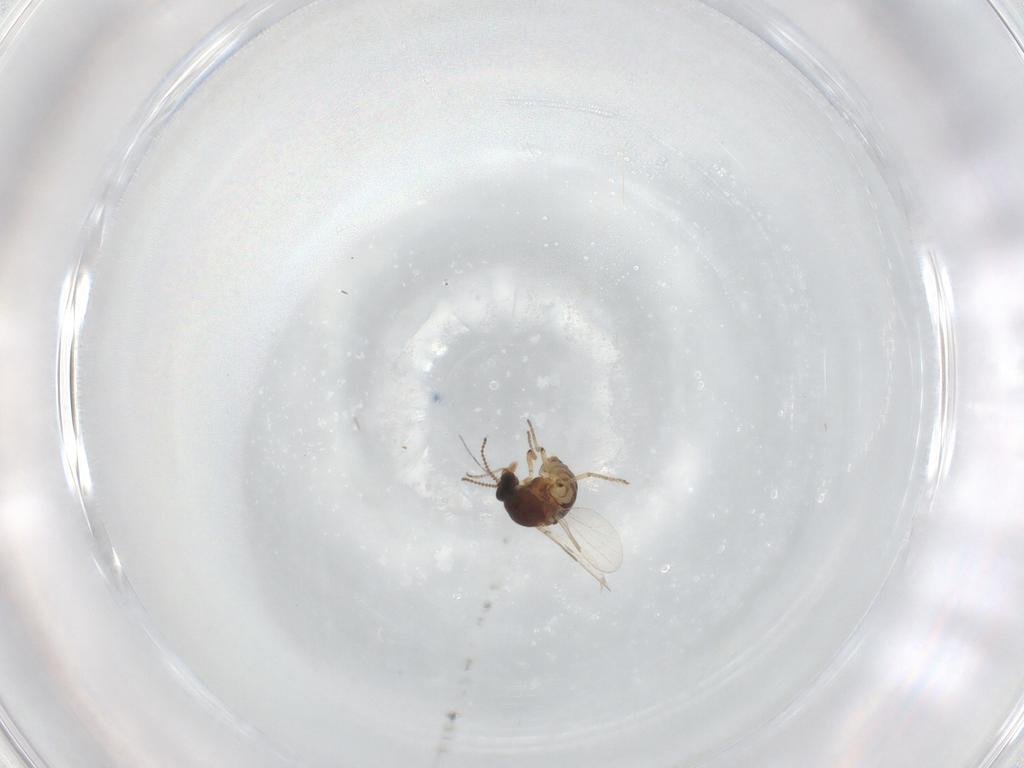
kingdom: Animalia
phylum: Arthropoda
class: Insecta
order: Diptera
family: Ceratopogonidae
